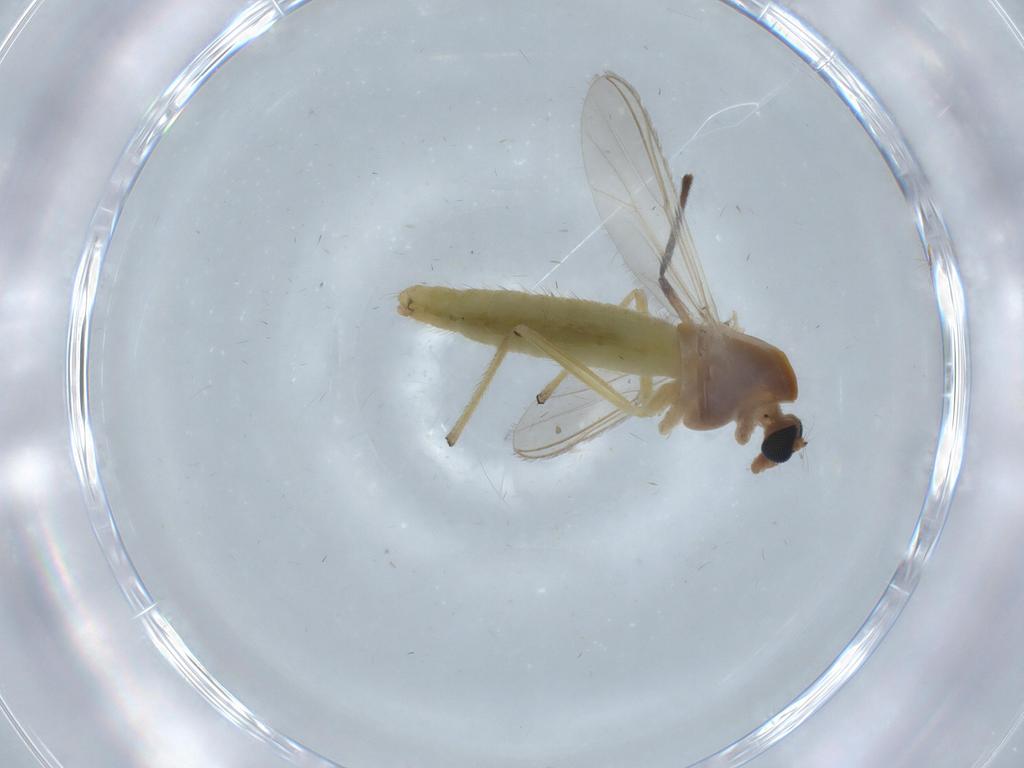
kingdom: Animalia
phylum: Arthropoda
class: Insecta
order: Diptera
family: Chironomidae
